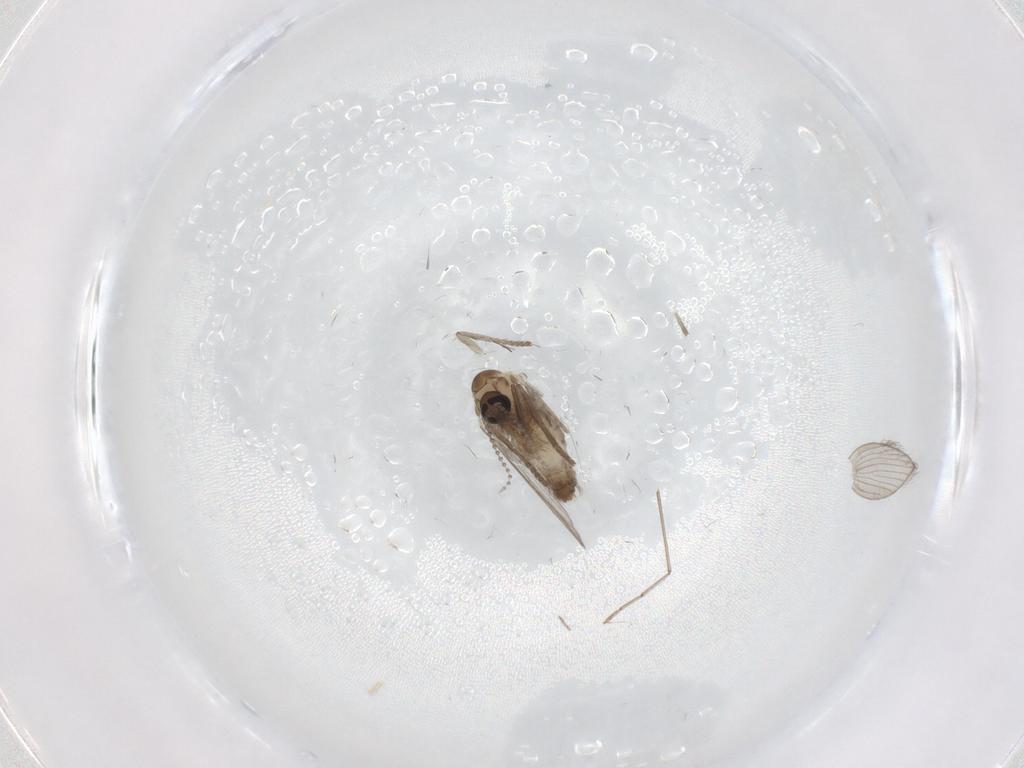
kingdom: Animalia
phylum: Arthropoda
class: Insecta
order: Diptera
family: Psychodidae
